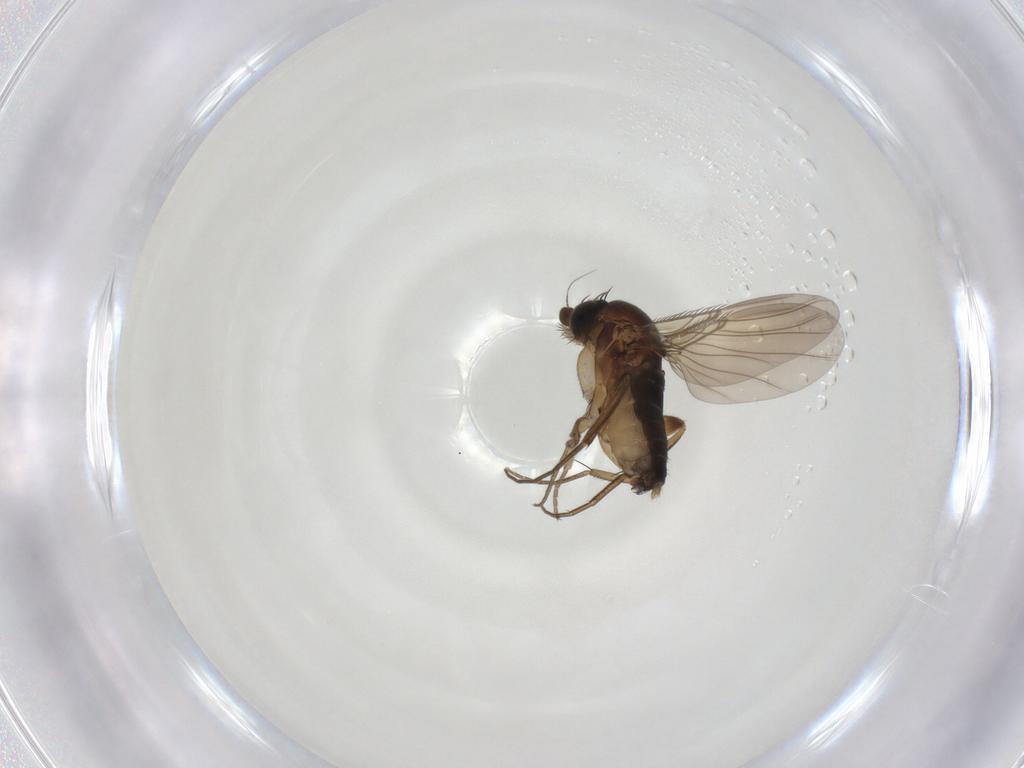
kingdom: Animalia
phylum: Arthropoda
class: Insecta
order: Diptera
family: Phoridae
